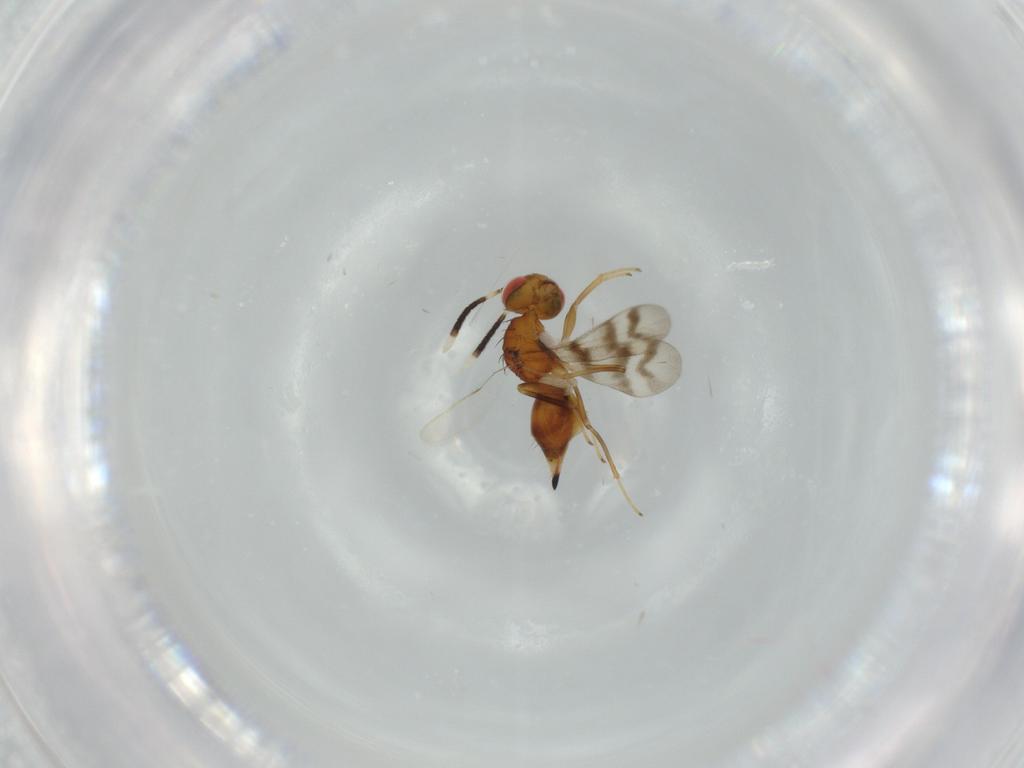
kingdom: Animalia
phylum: Arthropoda
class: Insecta
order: Hymenoptera
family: Diparidae
